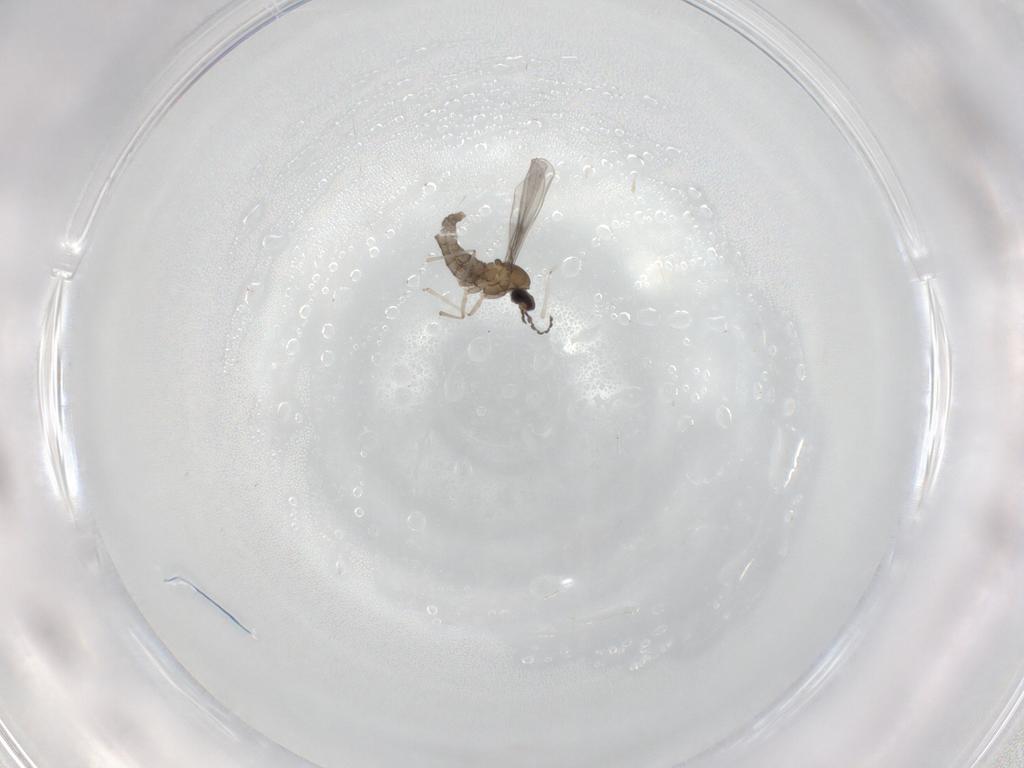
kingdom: Animalia
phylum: Arthropoda
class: Insecta
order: Diptera
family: Cecidomyiidae
